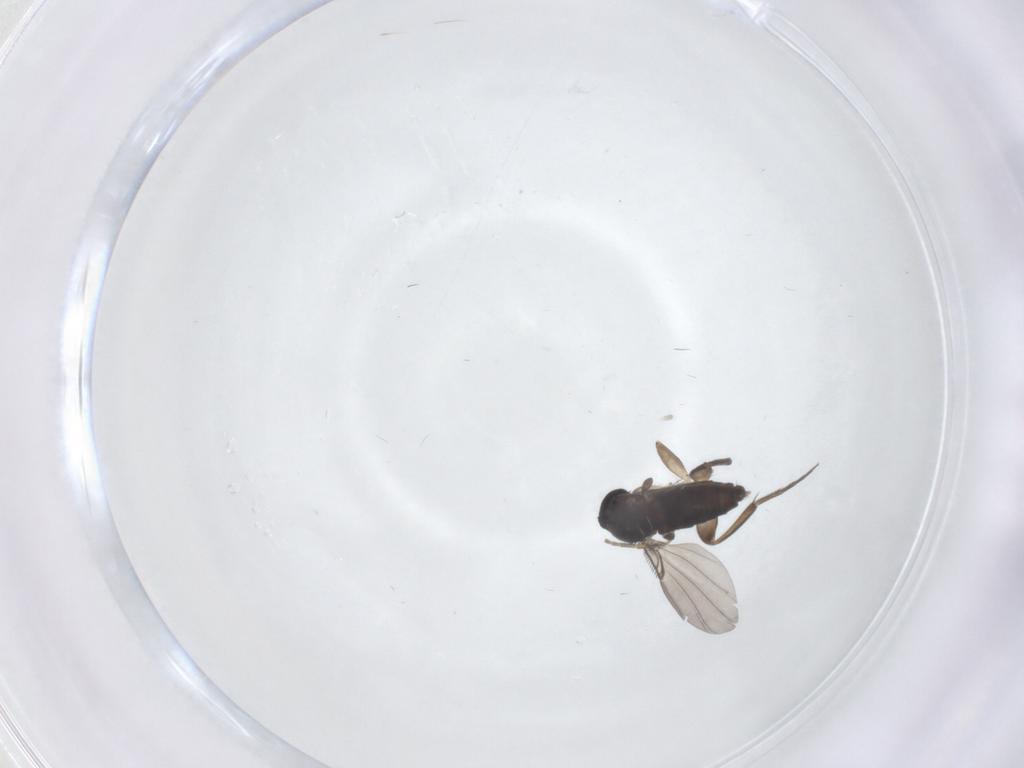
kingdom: Animalia
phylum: Arthropoda
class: Insecta
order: Diptera
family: Phoridae
